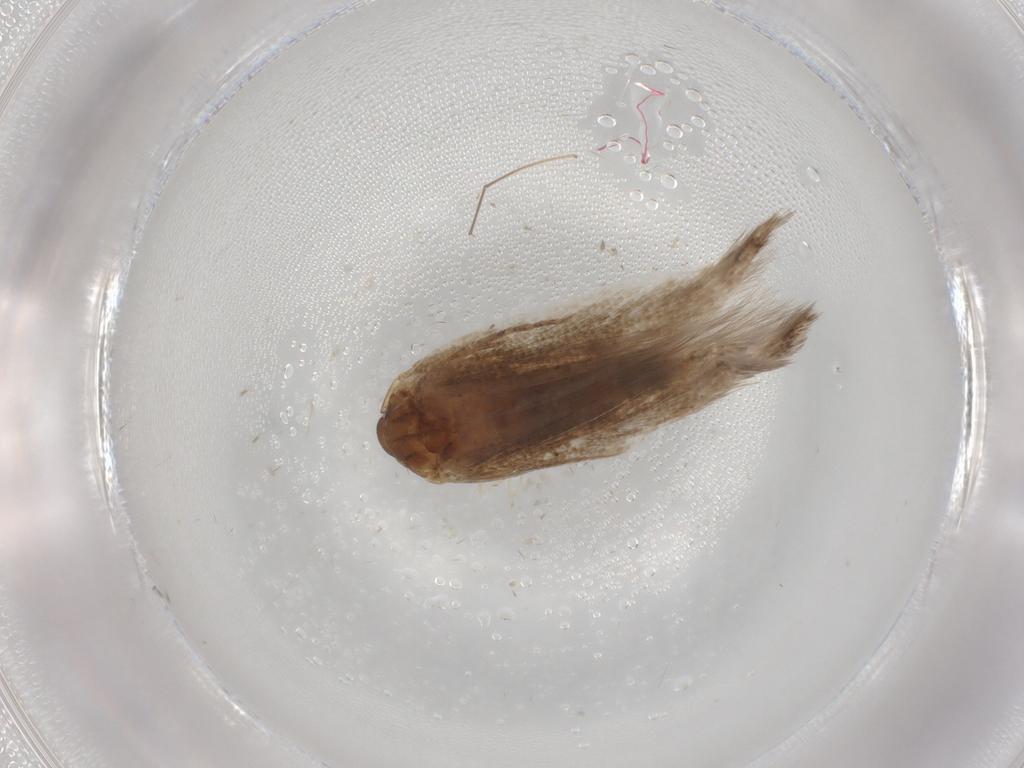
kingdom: Animalia
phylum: Arthropoda
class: Insecta
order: Lepidoptera
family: Cosmopterigidae
